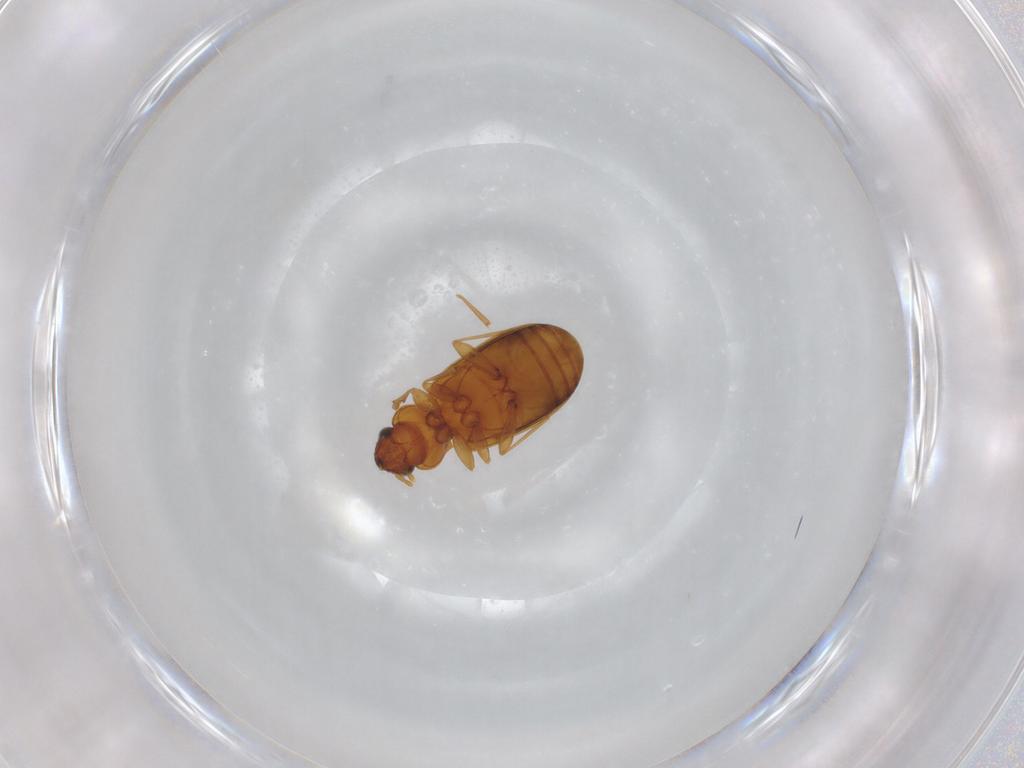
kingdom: Animalia
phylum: Arthropoda
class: Insecta
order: Coleoptera
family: Carabidae
